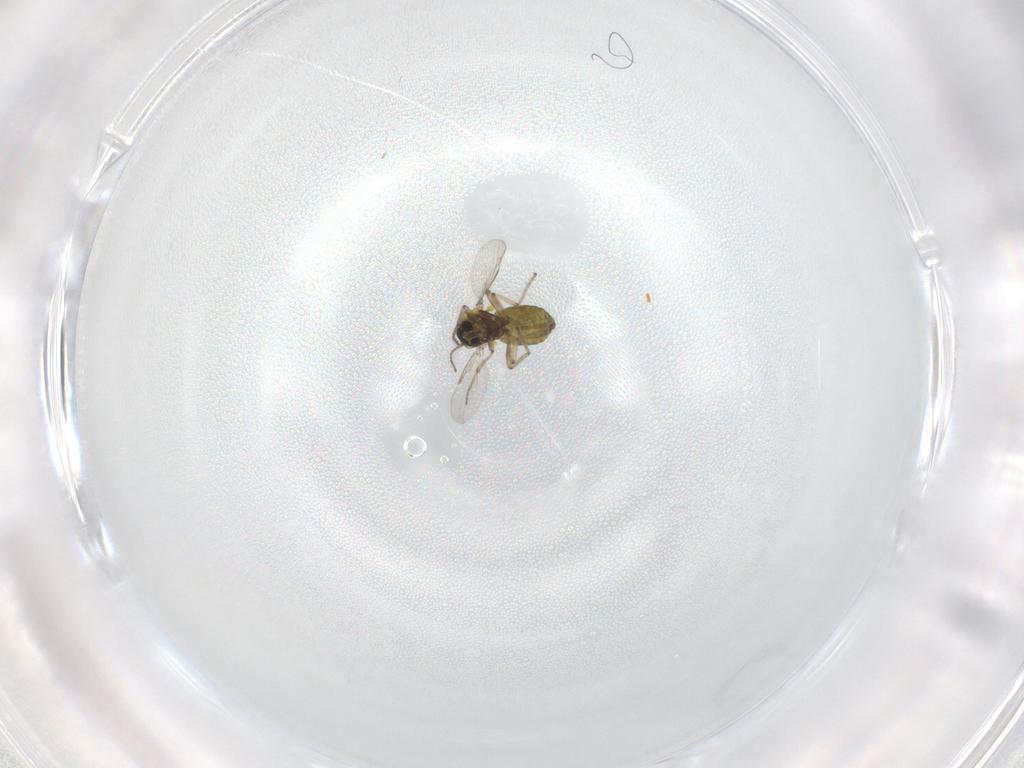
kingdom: Animalia
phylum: Arthropoda
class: Insecta
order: Diptera
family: Ceratopogonidae
